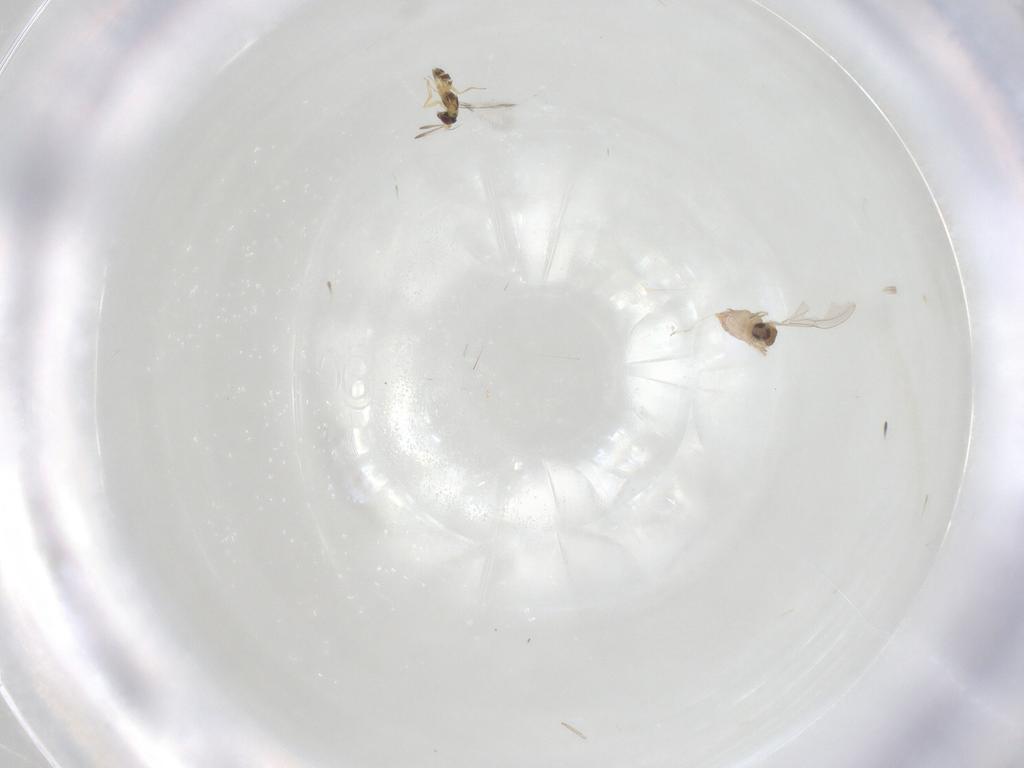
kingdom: Animalia
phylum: Arthropoda
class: Insecta
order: Diptera
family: Cecidomyiidae
